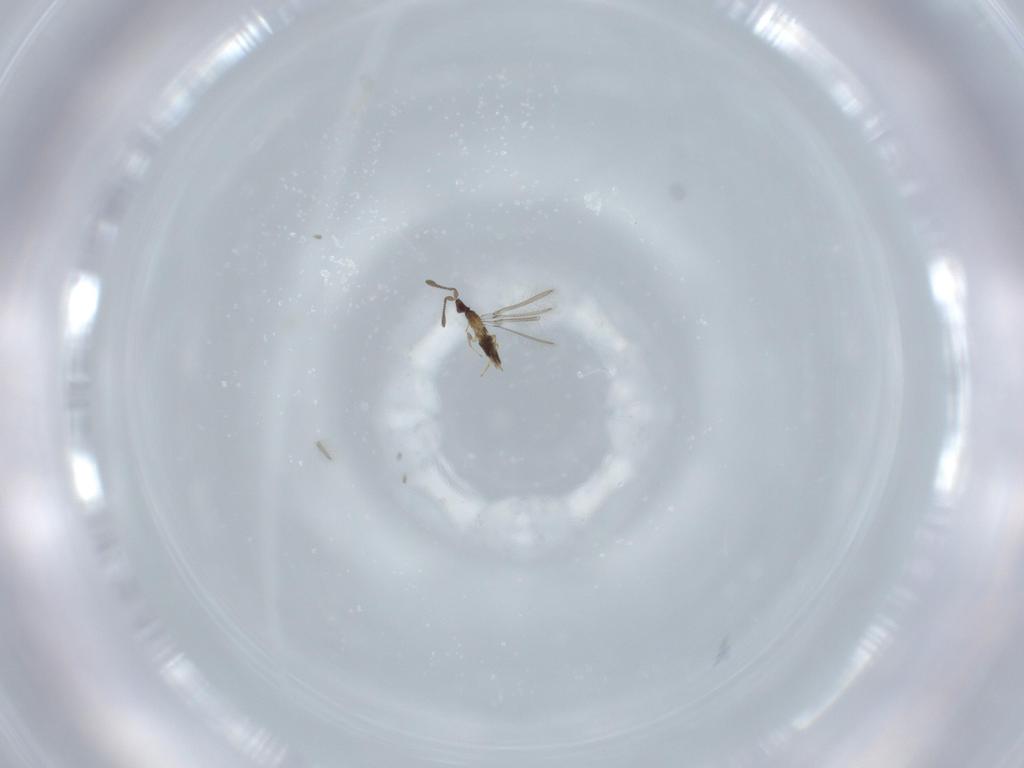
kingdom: Animalia
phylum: Arthropoda
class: Insecta
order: Hymenoptera
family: Mymaridae
